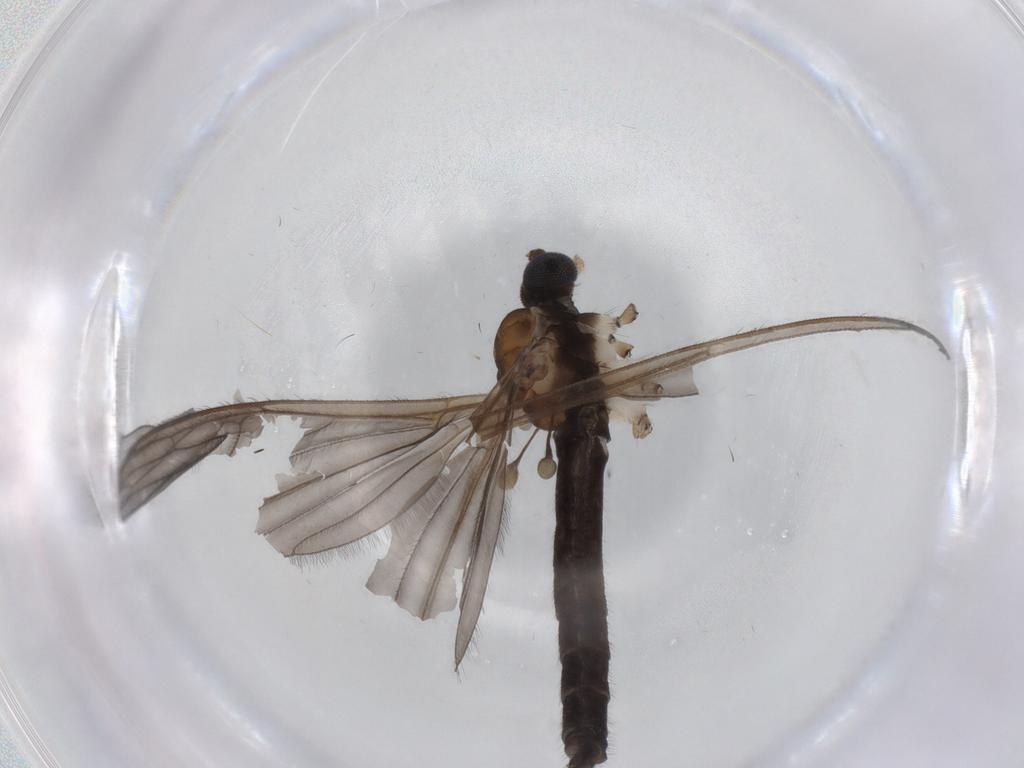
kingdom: Animalia
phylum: Arthropoda
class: Insecta
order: Diptera
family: Cecidomyiidae
